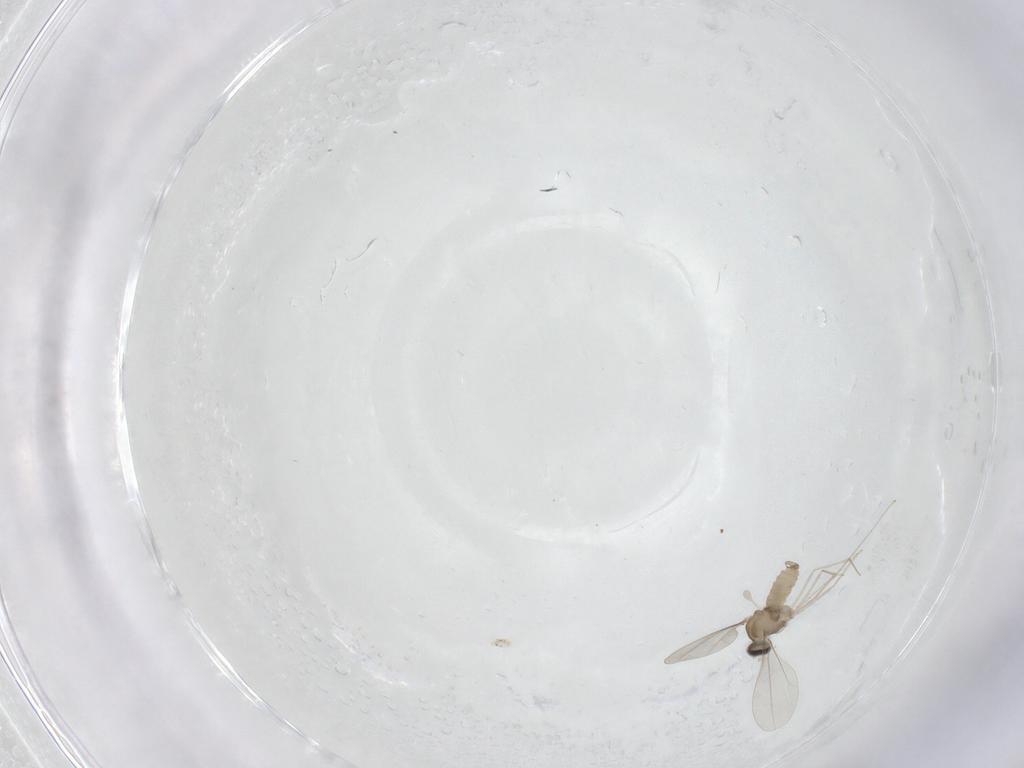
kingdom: Animalia
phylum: Arthropoda
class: Insecta
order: Diptera
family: Cecidomyiidae
